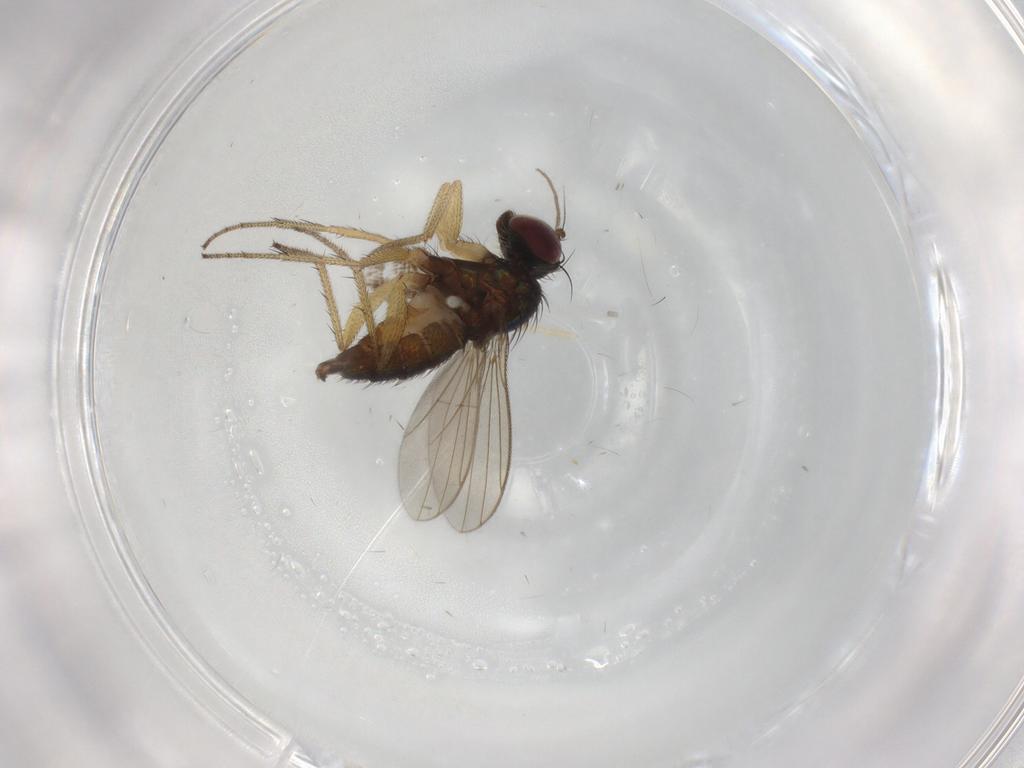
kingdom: Animalia
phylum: Arthropoda
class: Insecta
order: Diptera
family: Chironomidae
